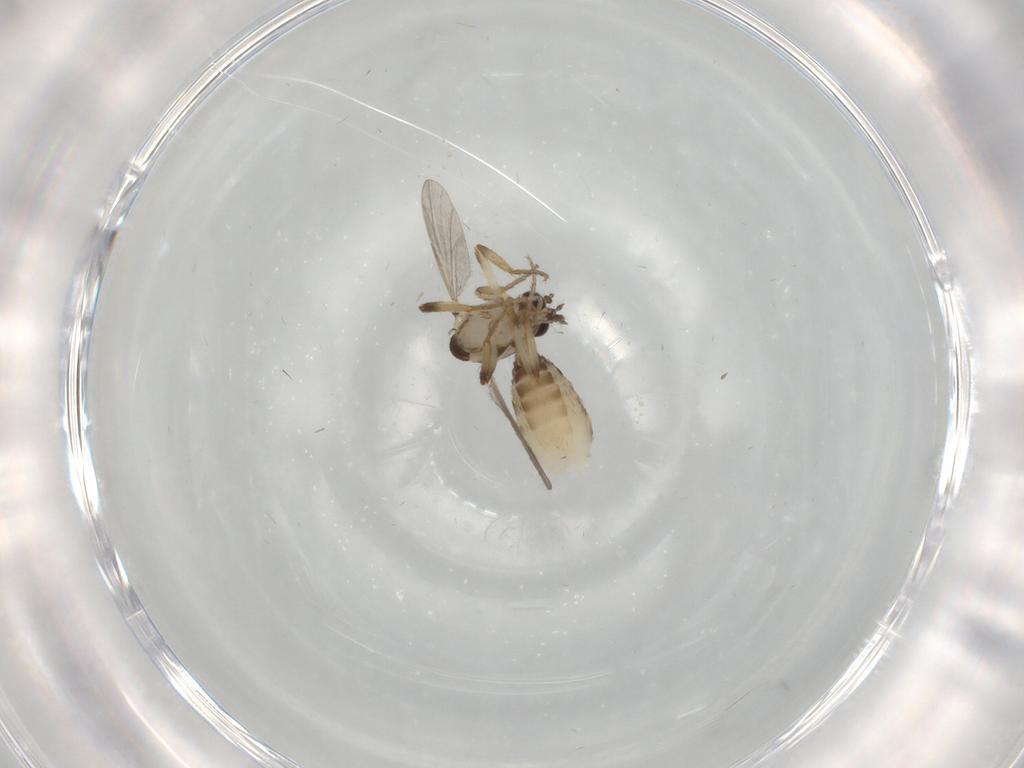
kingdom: Animalia
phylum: Arthropoda
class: Insecta
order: Diptera
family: Ceratopogonidae
